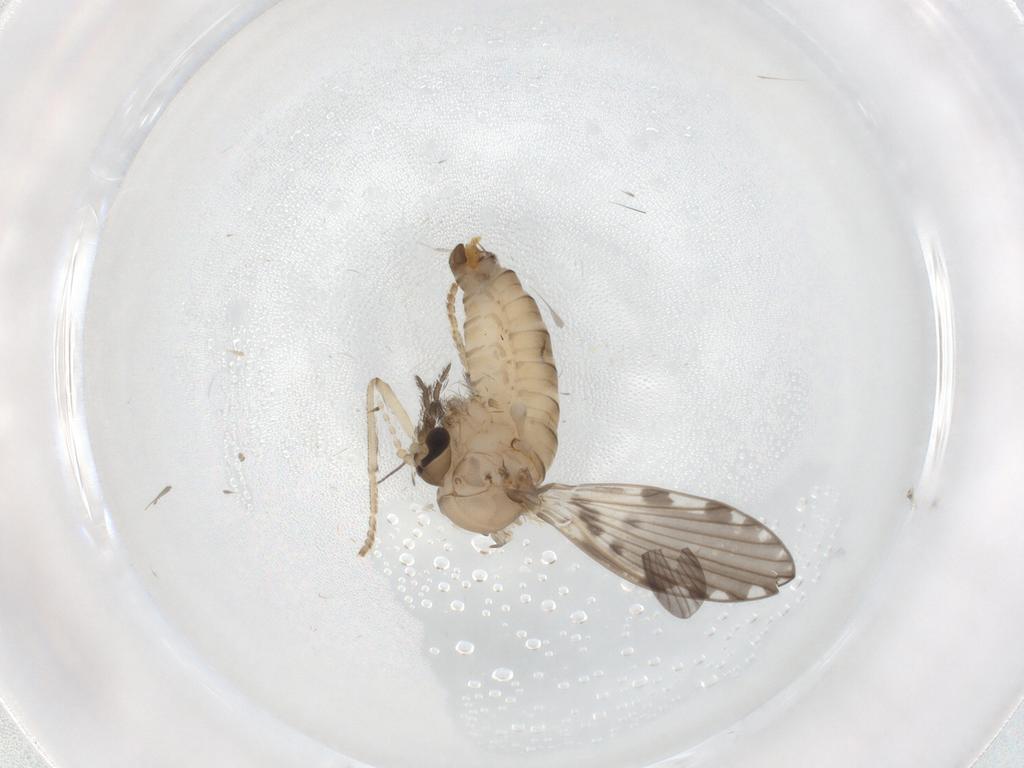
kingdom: Animalia
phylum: Arthropoda
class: Insecta
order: Diptera
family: Psychodidae
